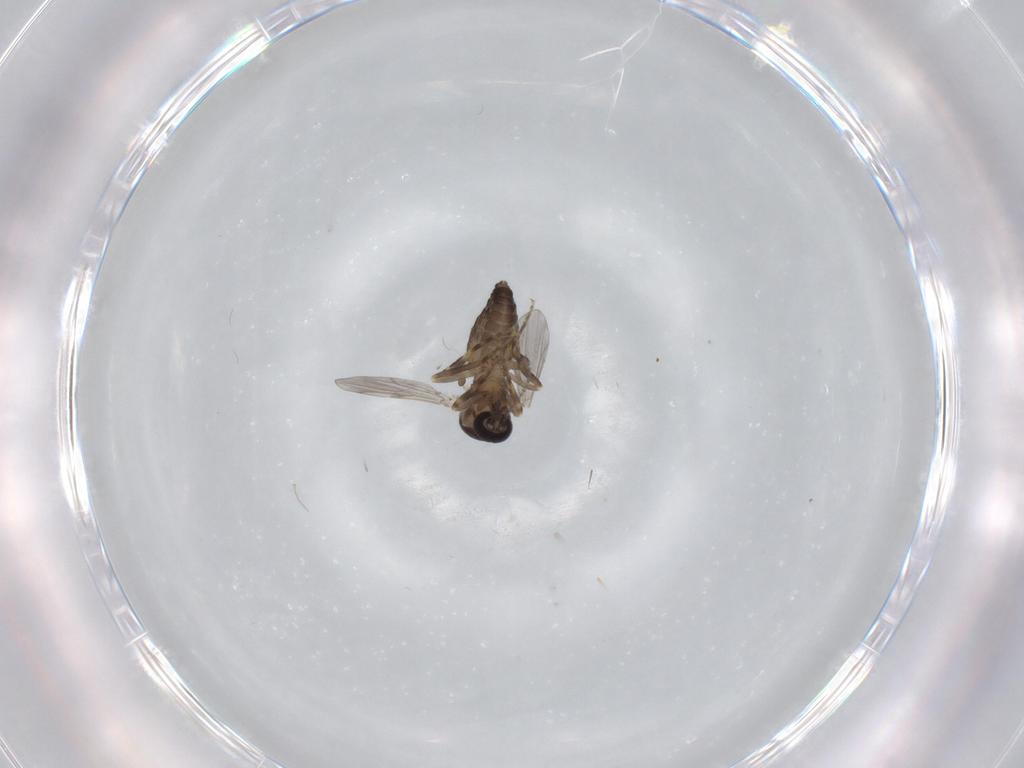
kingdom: Animalia
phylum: Arthropoda
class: Insecta
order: Diptera
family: Ceratopogonidae
